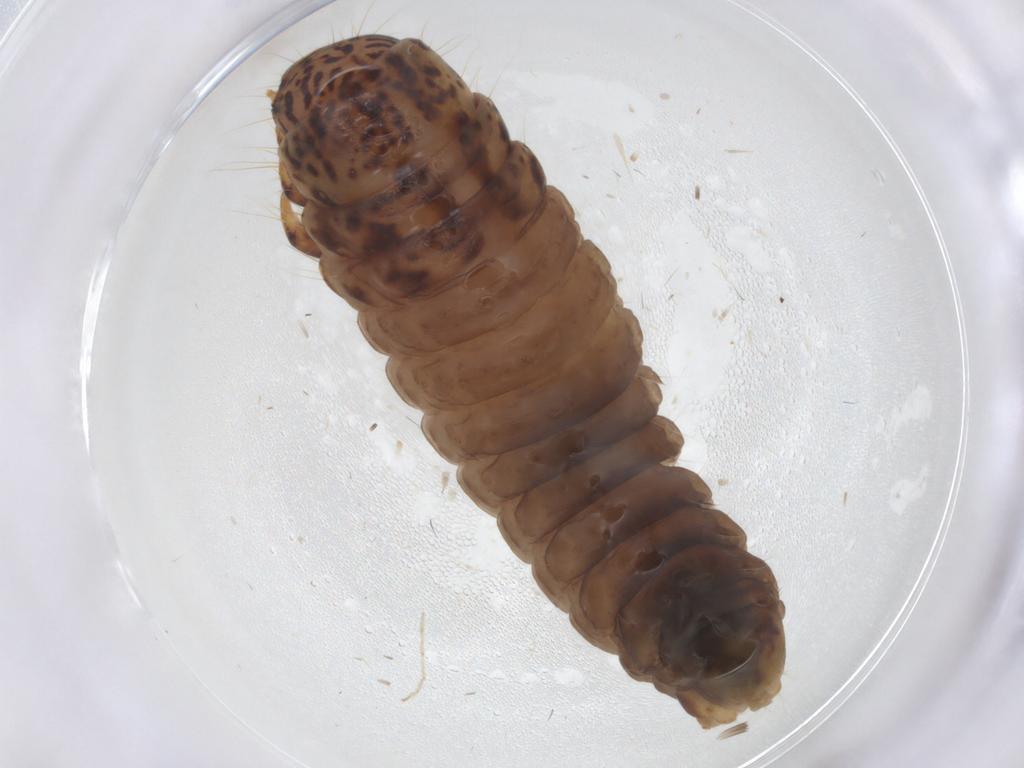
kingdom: Animalia
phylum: Arthropoda
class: Insecta
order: Lepidoptera
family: Psychidae
